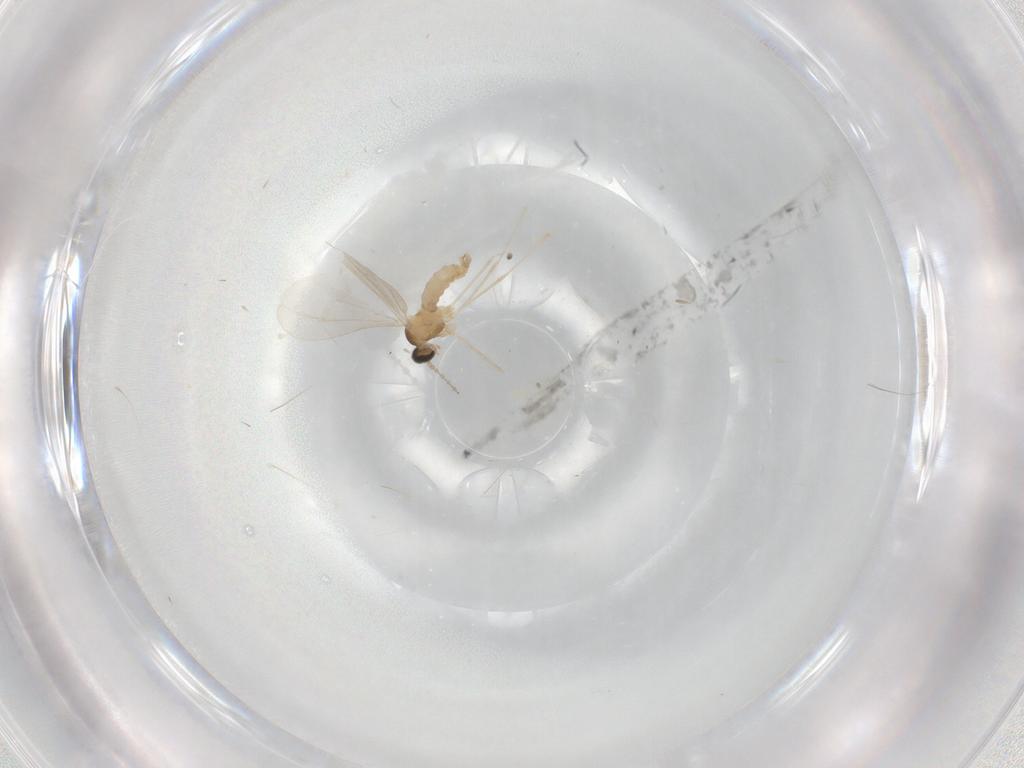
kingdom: Animalia
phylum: Arthropoda
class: Insecta
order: Diptera
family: Cecidomyiidae
